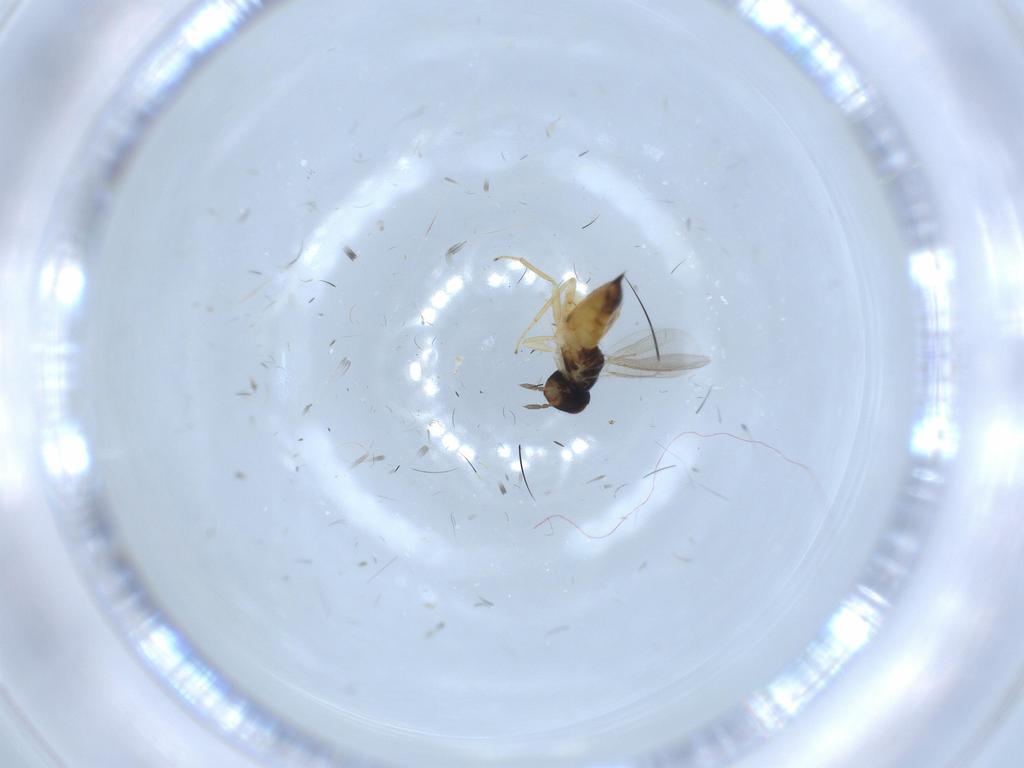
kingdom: Animalia
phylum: Arthropoda
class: Insecta
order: Hymenoptera
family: Eulophidae
